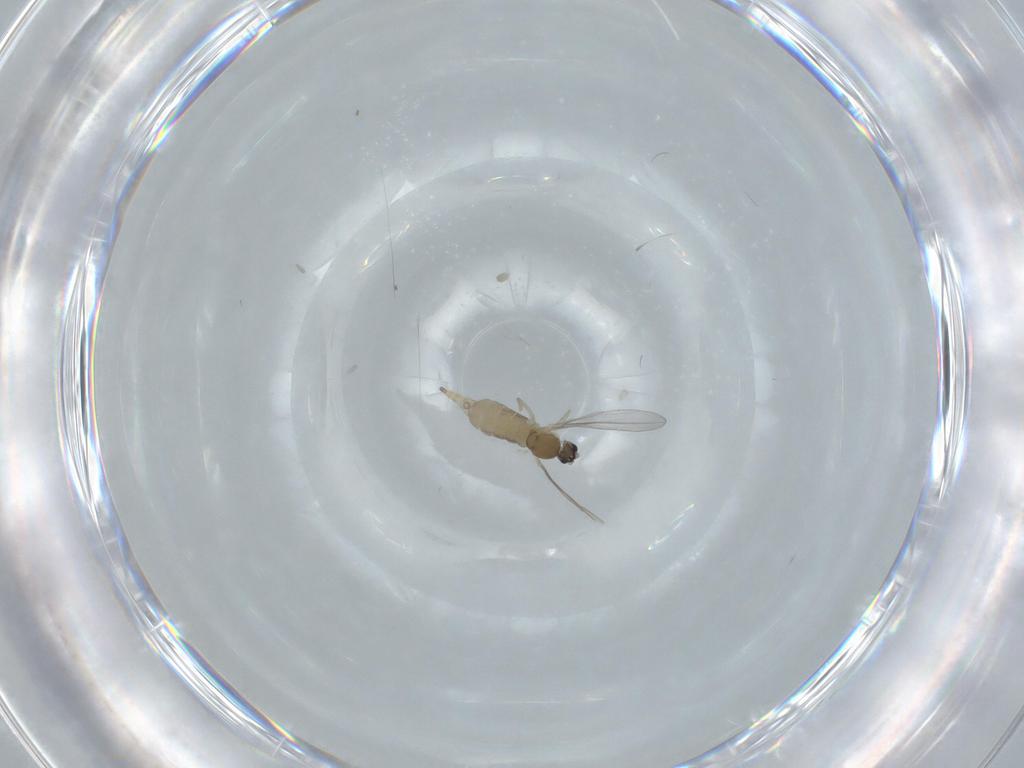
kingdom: Animalia
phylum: Arthropoda
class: Insecta
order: Diptera
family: Cecidomyiidae
